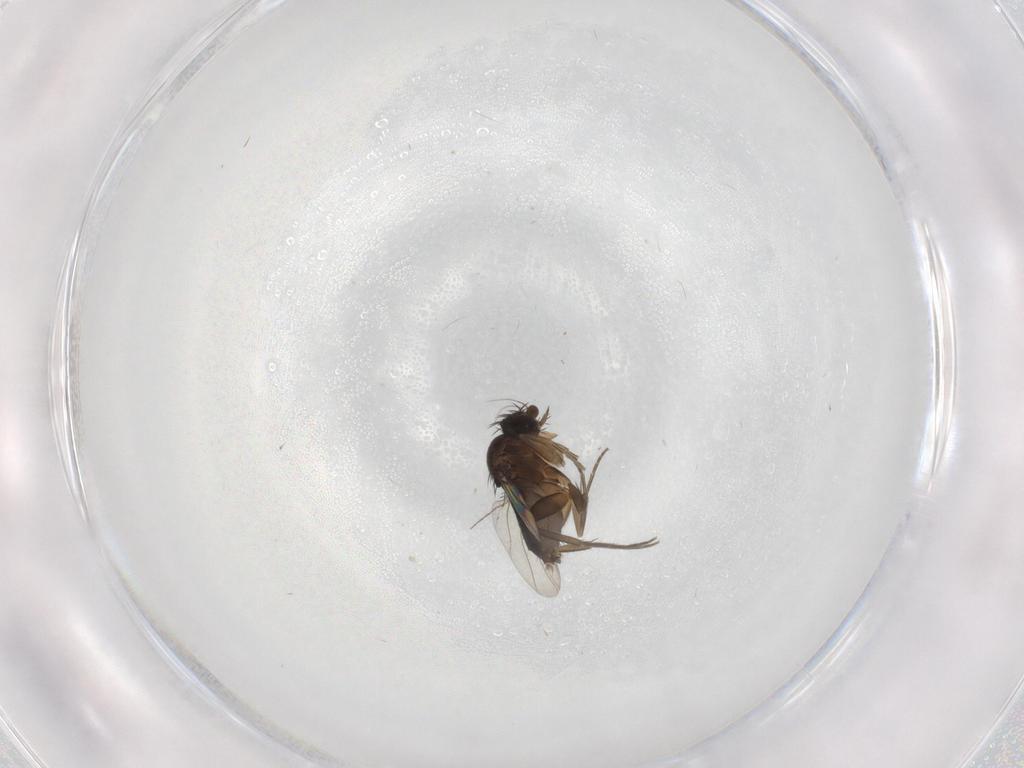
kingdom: Animalia
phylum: Arthropoda
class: Insecta
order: Diptera
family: Phoridae
